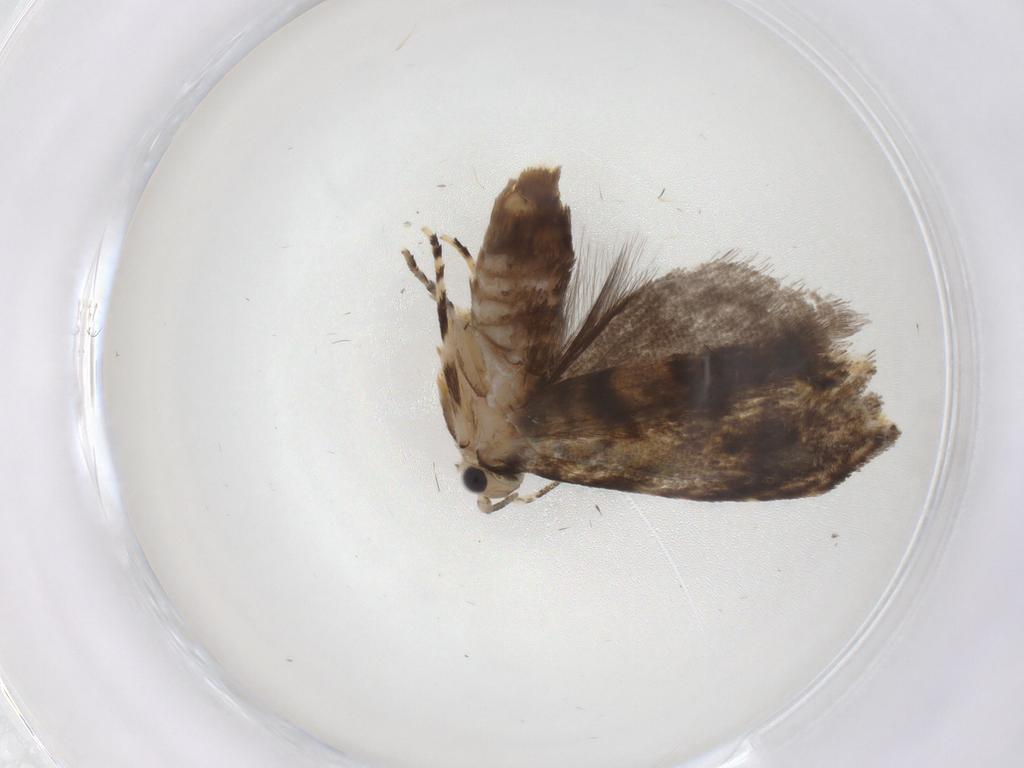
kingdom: Animalia
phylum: Arthropoda
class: Insecta
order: Lepidoptera
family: Tineidae
